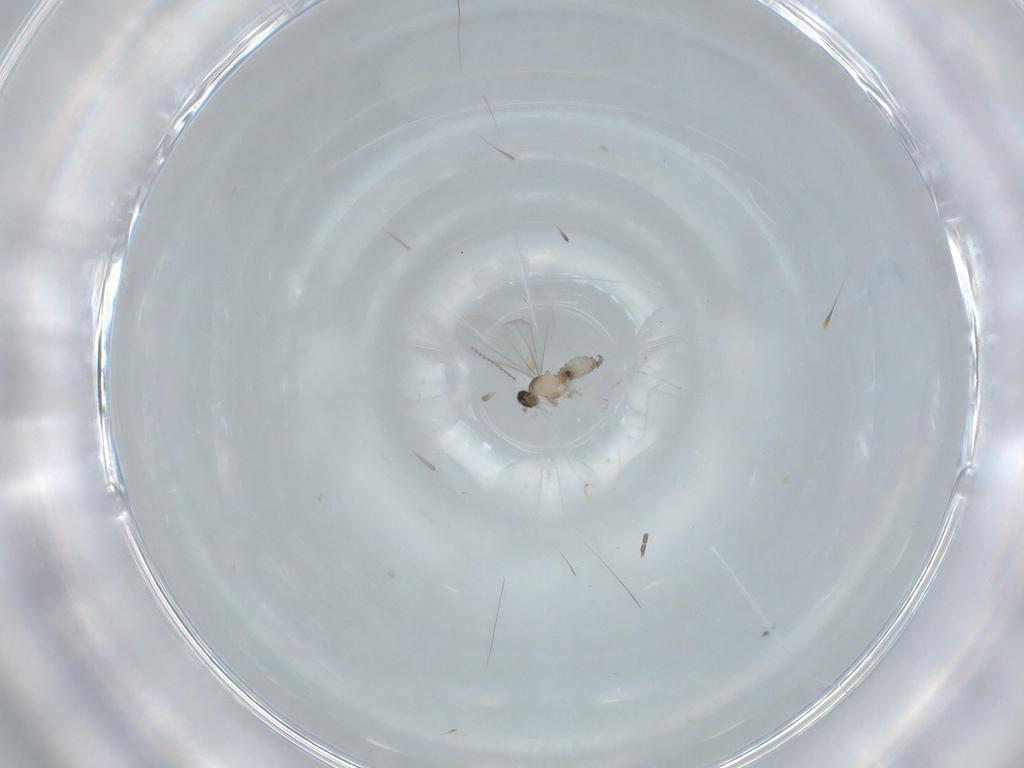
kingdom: Animalia
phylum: Arthropoda
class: Insecta
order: Diptera
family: Cecidomyiidae
